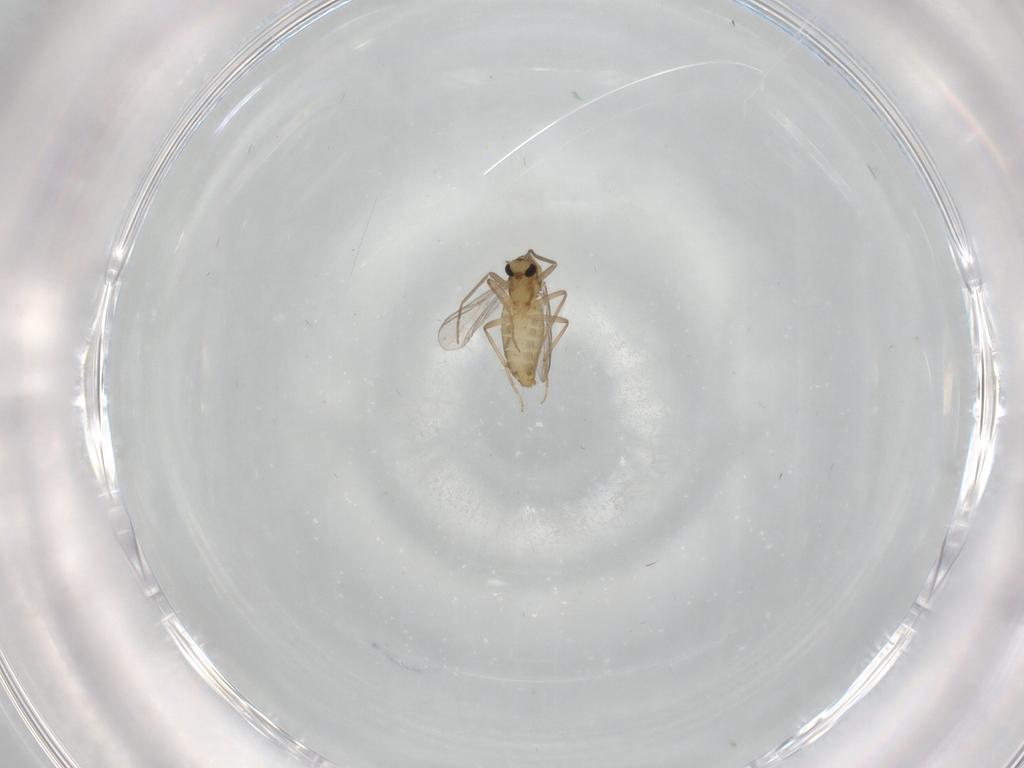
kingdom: Animalia
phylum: Arthropoda
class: Insecta
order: Diptera
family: Chironomidae
